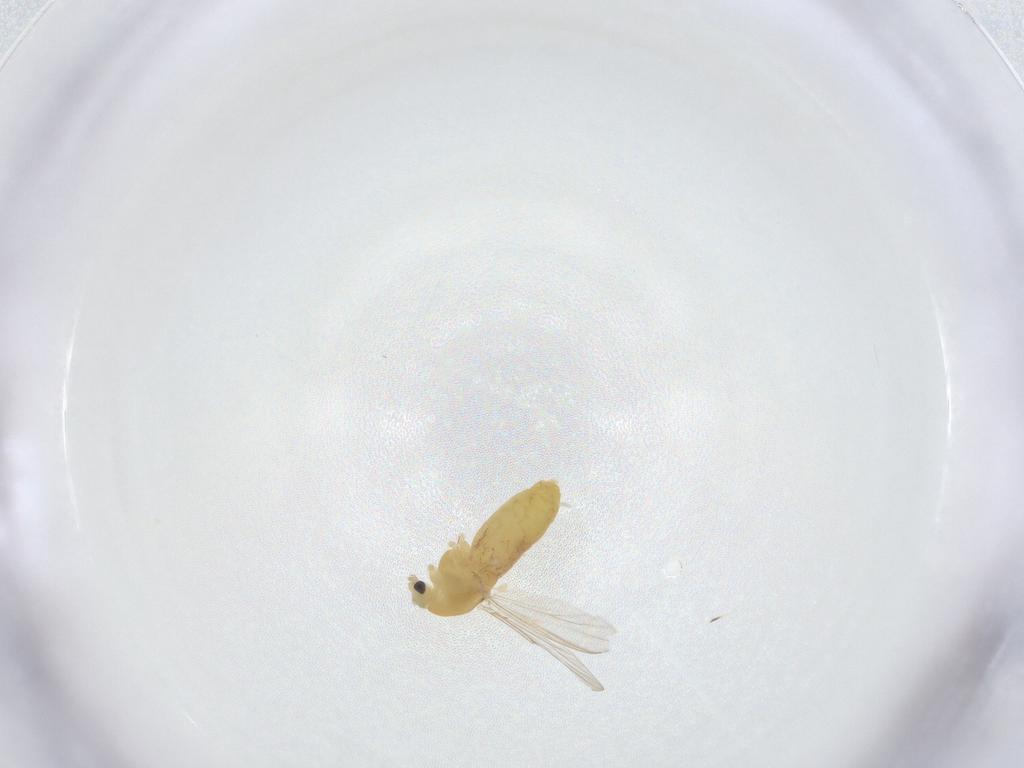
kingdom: Animalia
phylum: Arthropoda
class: Insecta
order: Diptera
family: Chironomidae
